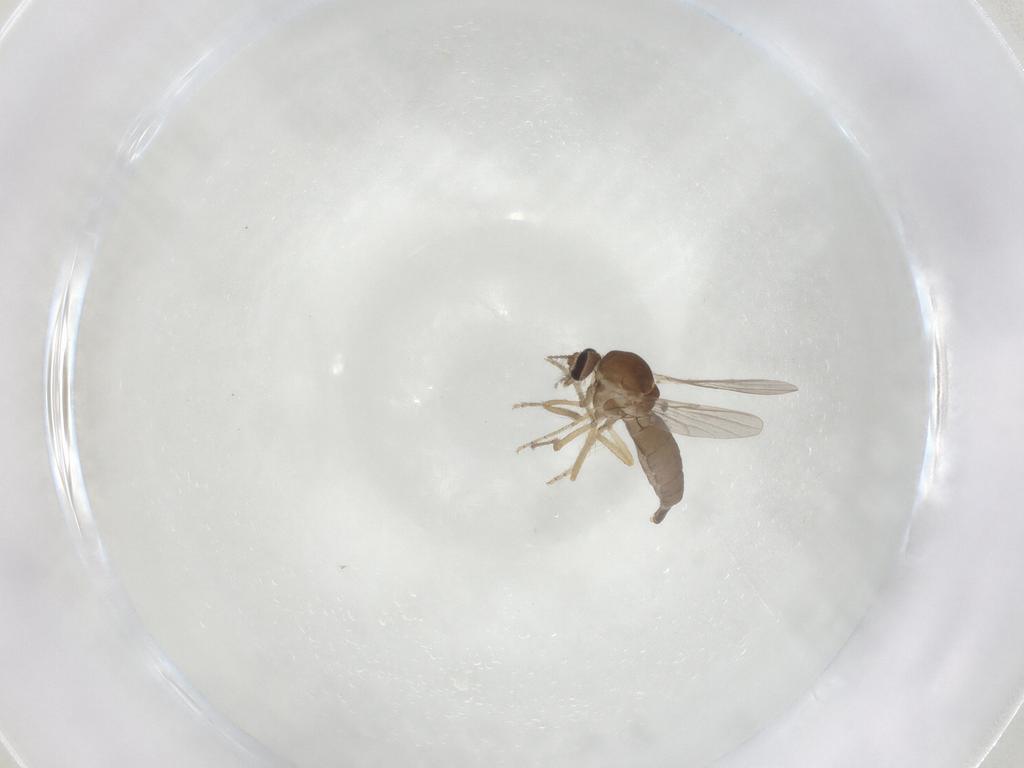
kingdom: Animalia
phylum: Arthropoda
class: Insecta
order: Diptera
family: Ceratopogonidae
